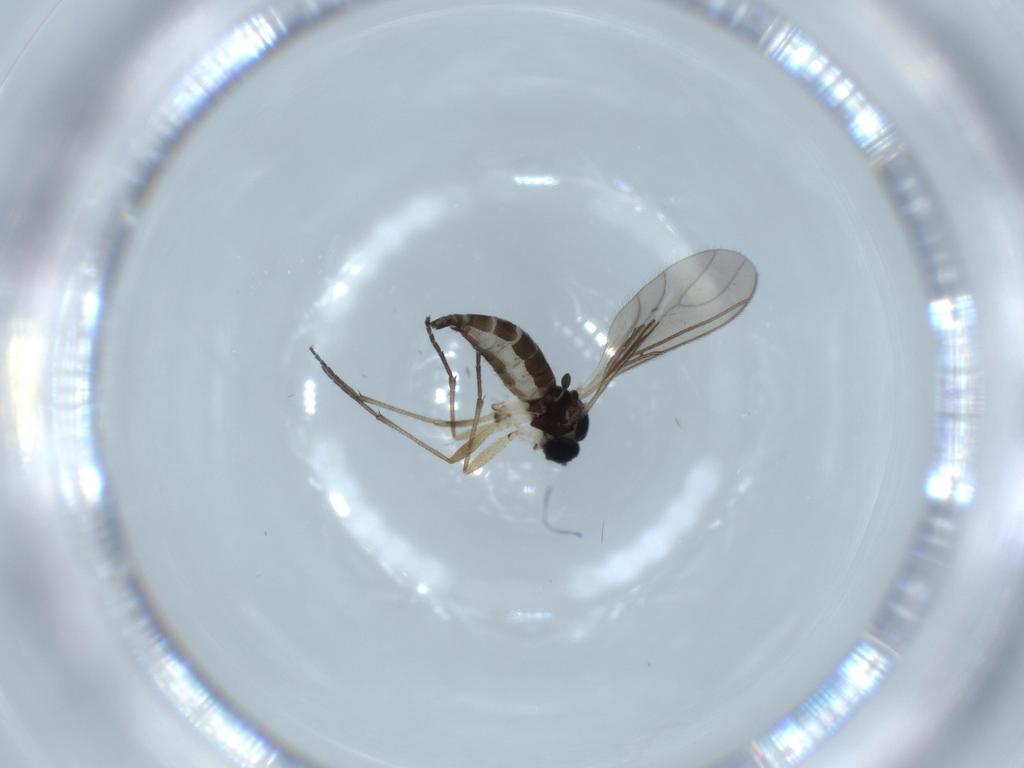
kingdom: Animalia
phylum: Arthropoda
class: Insecta
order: Diptera
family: Sciaridae
